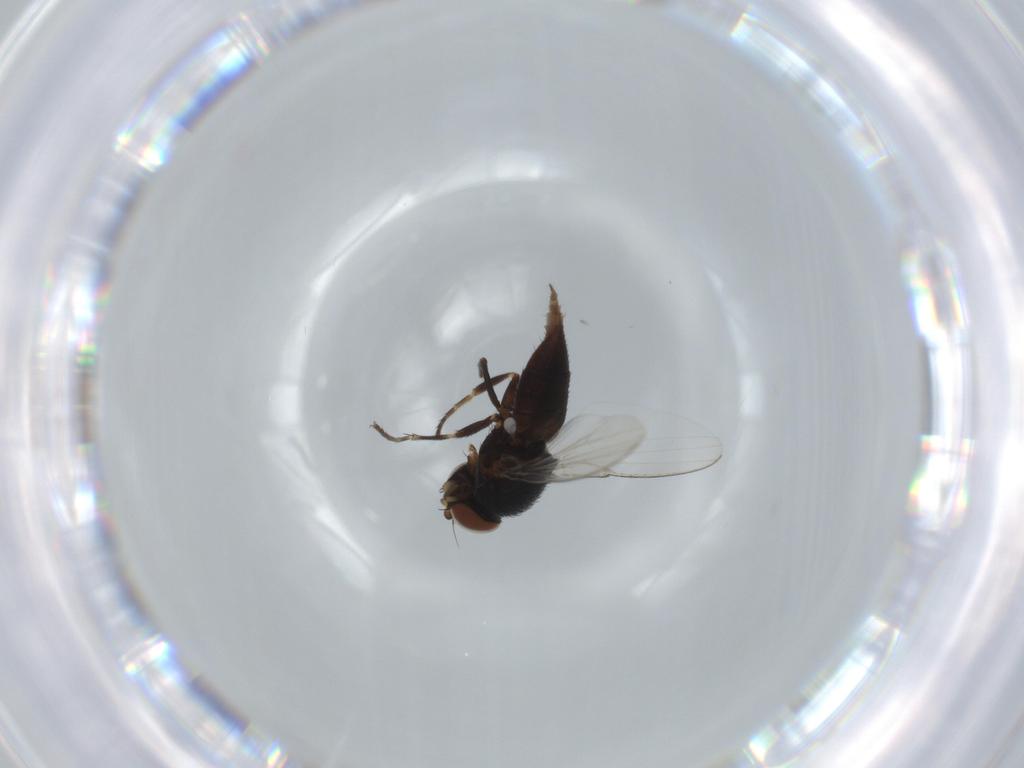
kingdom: Animalia
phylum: Arthropoda
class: Insecta
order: Diptera
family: Milichiidae
